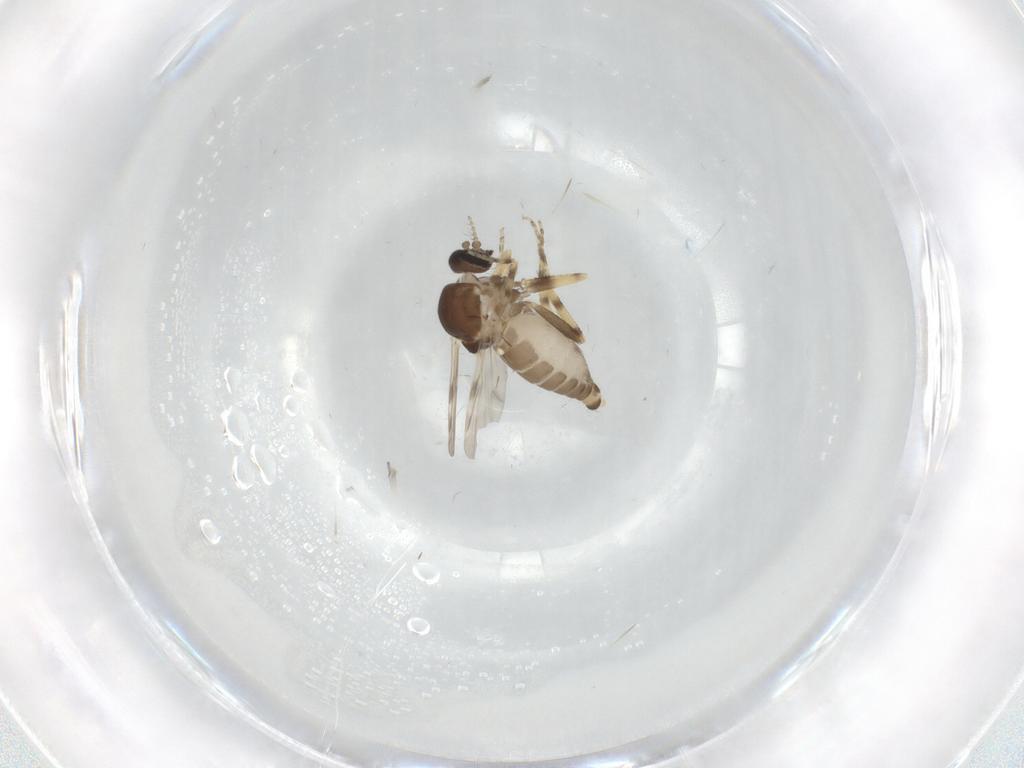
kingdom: Animalia
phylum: Arthropoda
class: Insecta
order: Diptera
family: Ceratopogonidae
